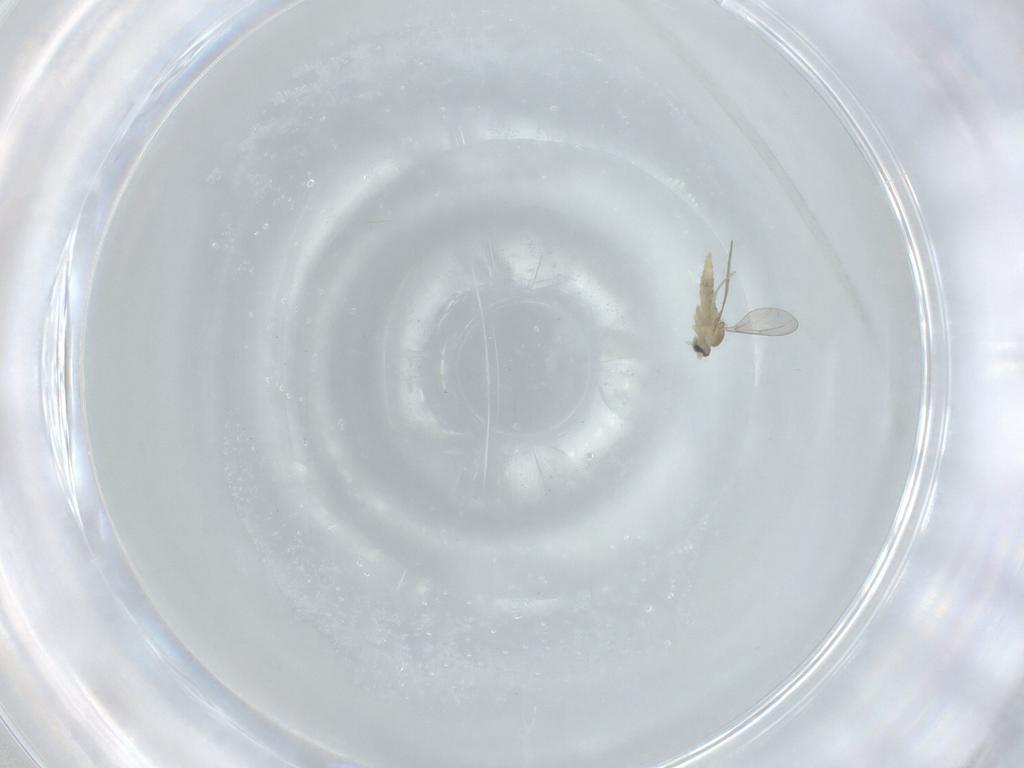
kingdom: Animalia
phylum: Arthropoda
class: Insecta
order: Diptera
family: Cecidomyiidae
